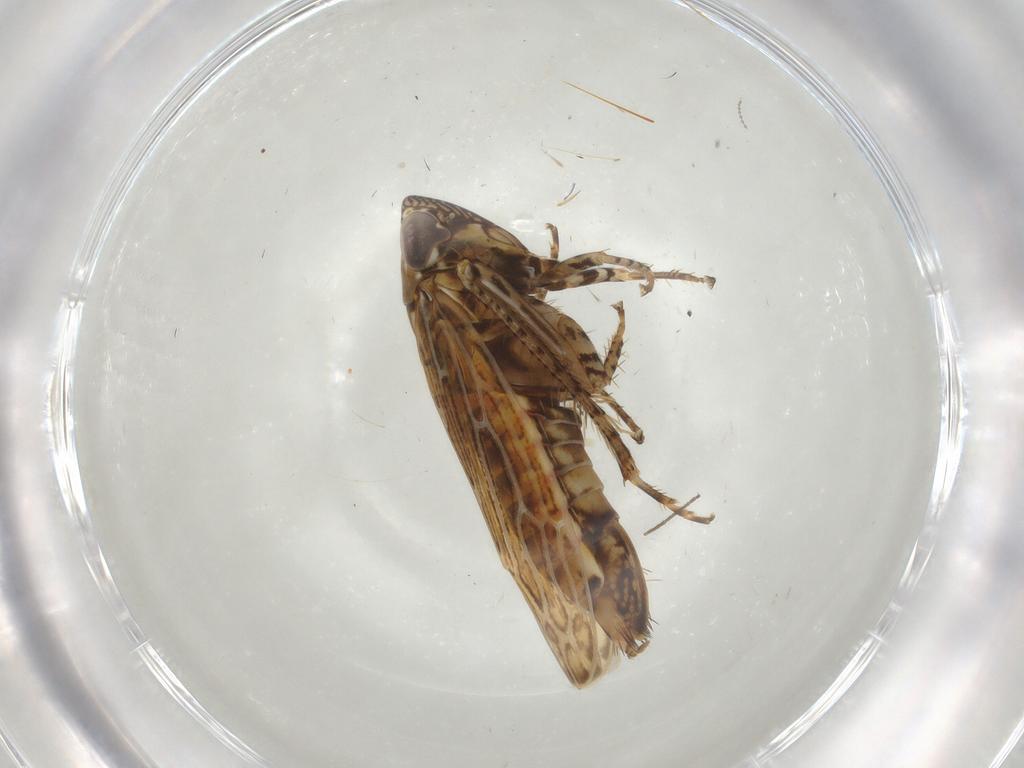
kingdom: Animalia
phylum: Arthropoda
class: Insecta
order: Hemiptera
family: Cicadellidae
